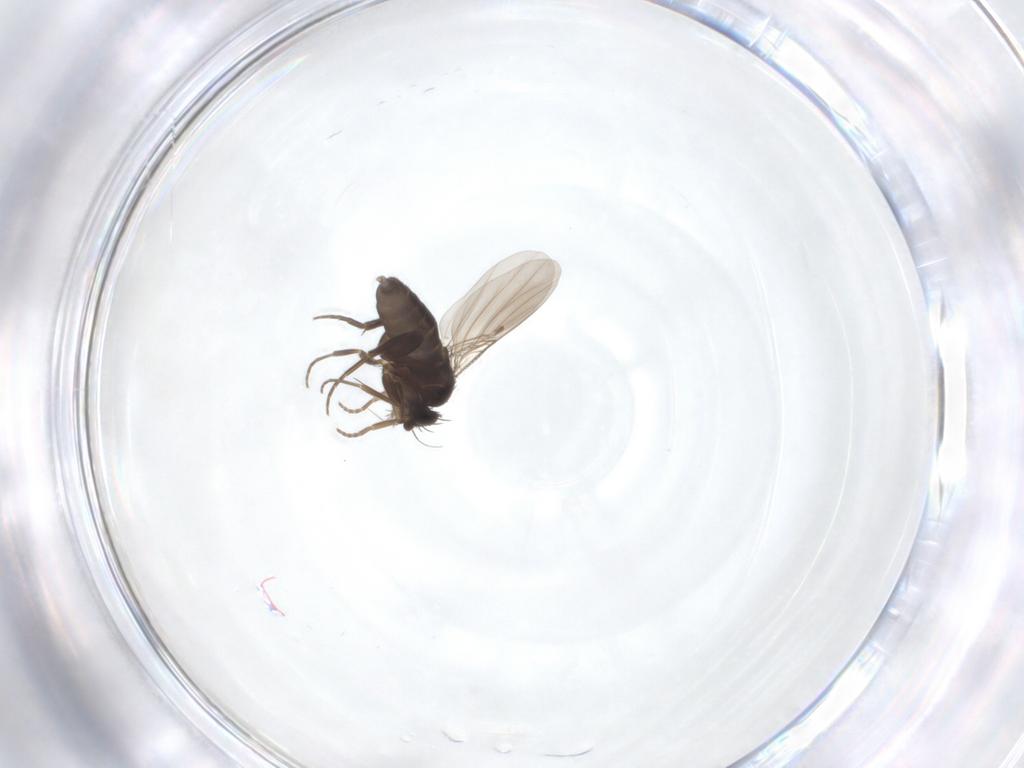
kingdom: Animalia
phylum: Arthropoda
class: Insecta
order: Diptera
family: Phoridae
